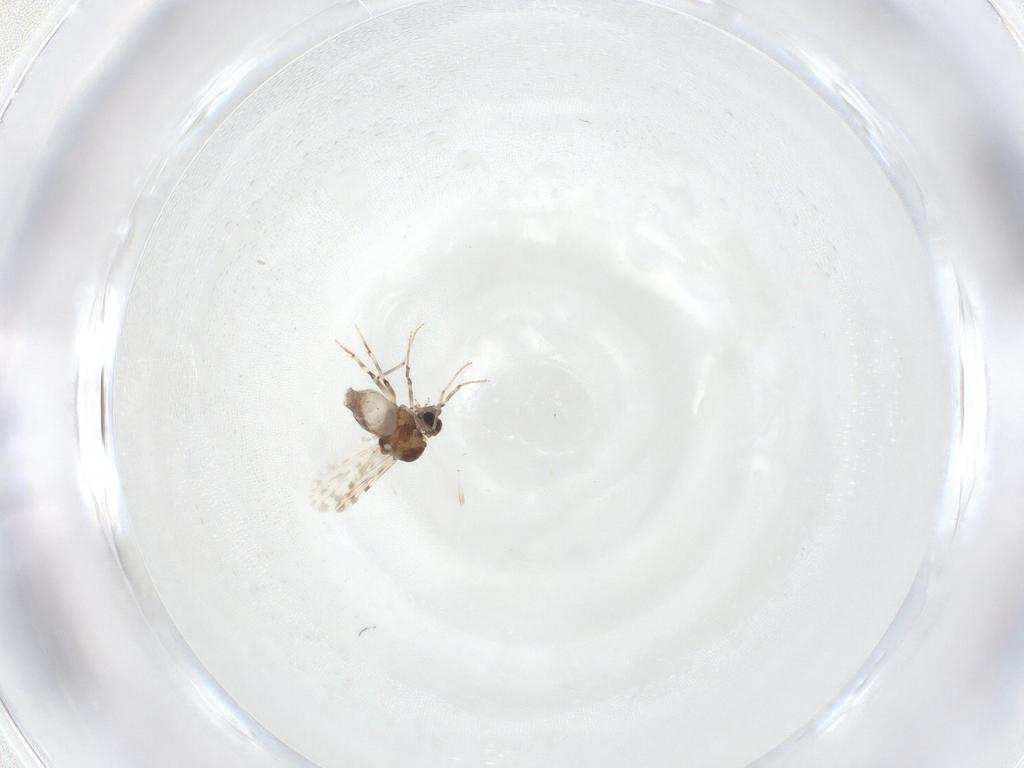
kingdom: Animalia
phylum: Arthropoda
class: Insecta
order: Diptera
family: Ceratopogonidae
